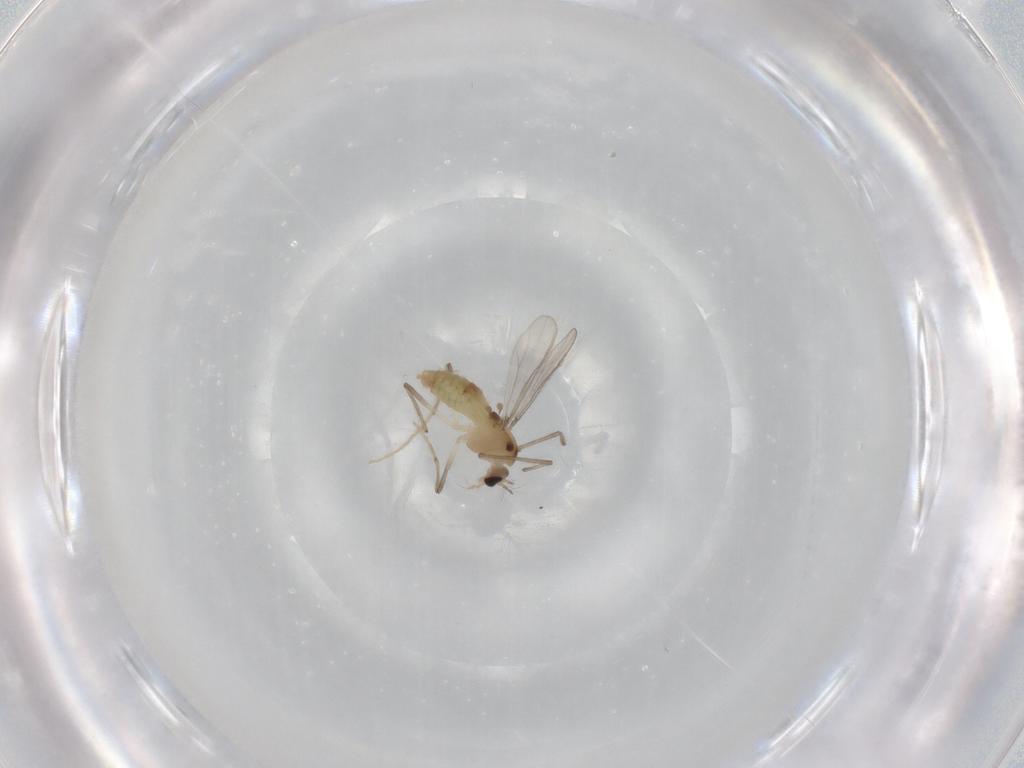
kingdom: Animalia
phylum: Arthropoda
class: Insecta
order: Diptera
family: Chironomidae
